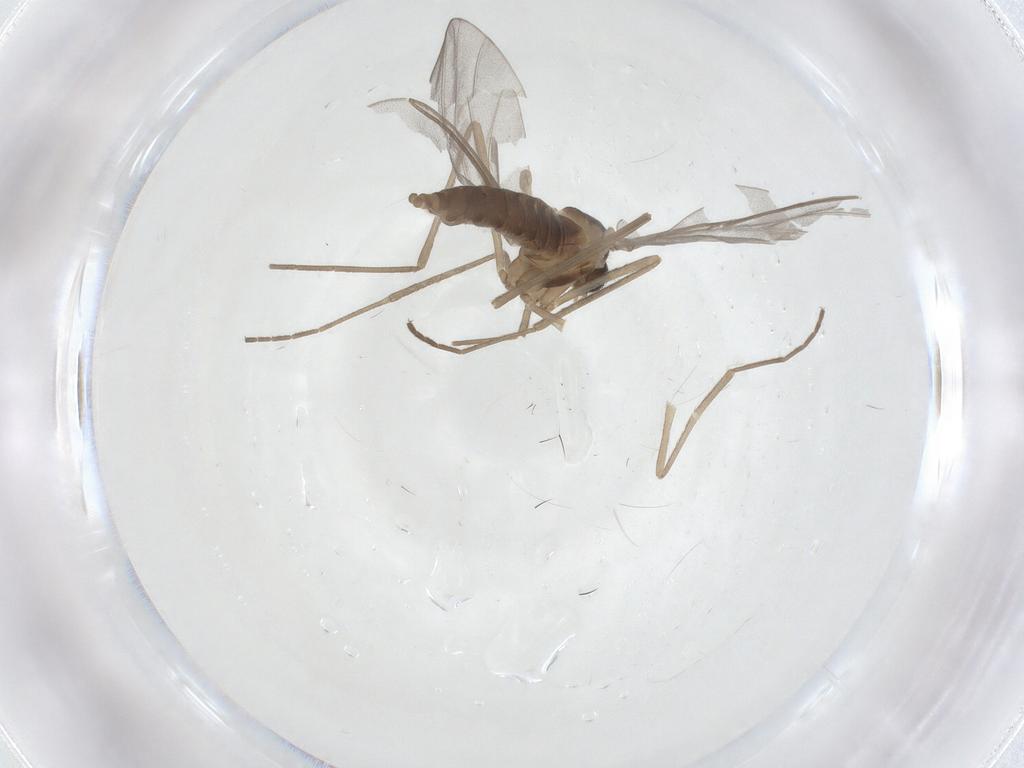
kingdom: Animalia
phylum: Arthropoda
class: Insecta
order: Diptera
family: Cecidomyiidae
